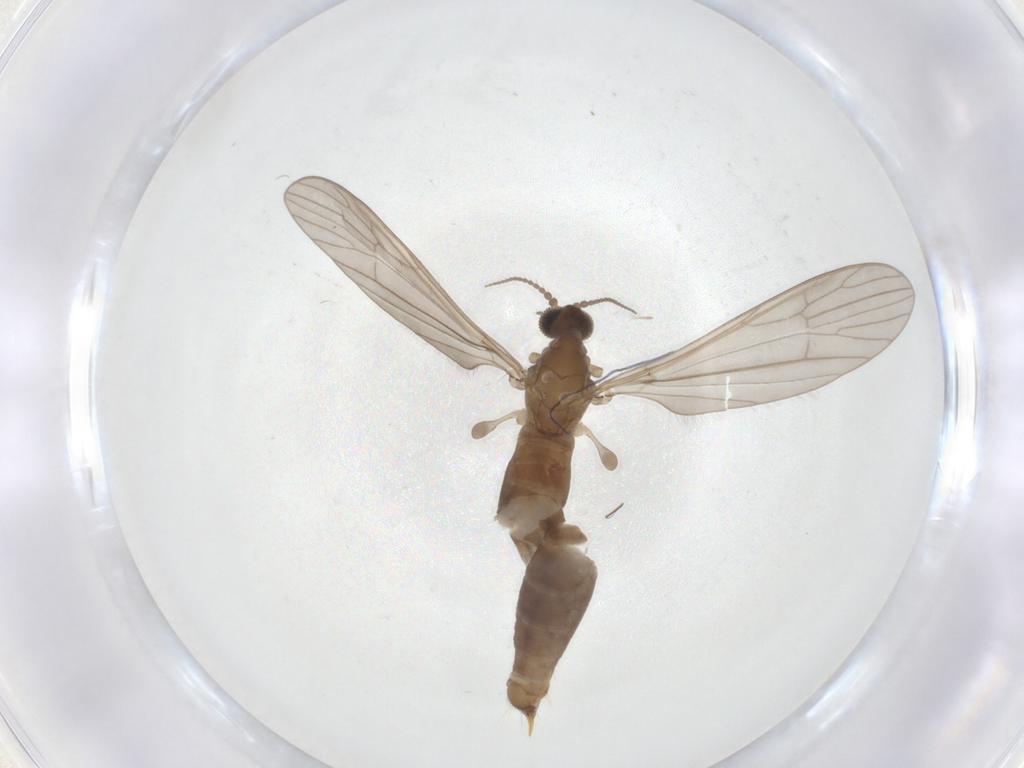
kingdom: Animalia
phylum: Arthropoda
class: Insecta
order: Diptera
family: Limoniidae
